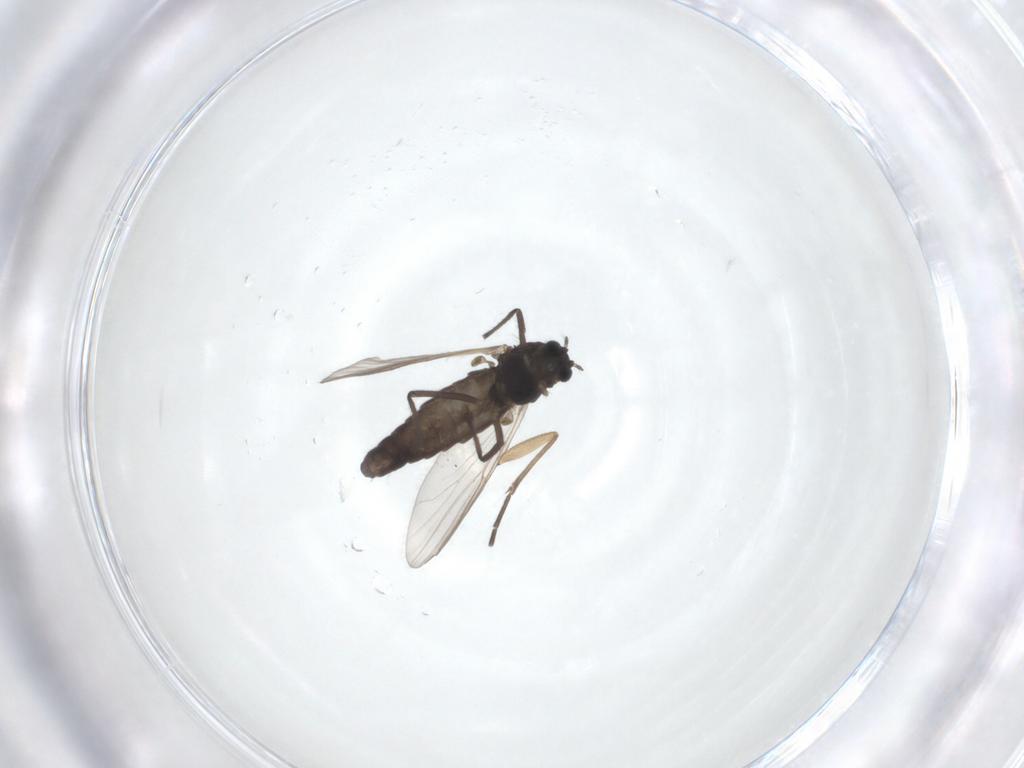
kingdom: Animalia
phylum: Arthropoda
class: Insecta
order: Diptera
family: Chironomidae
